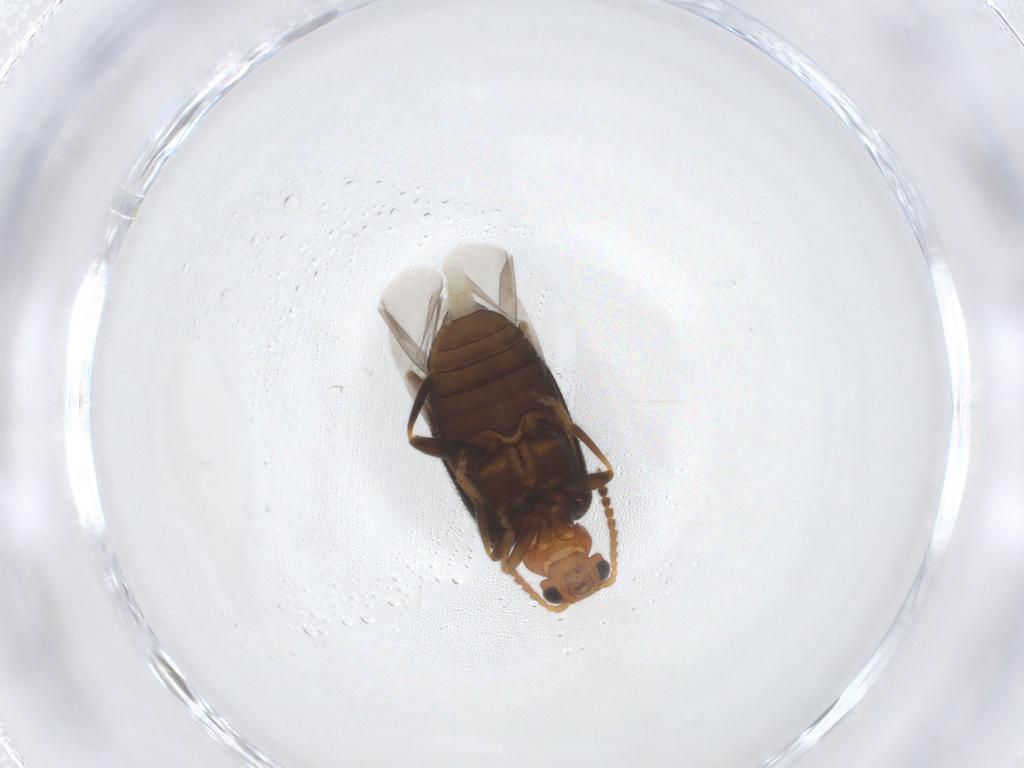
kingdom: Animalia
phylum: Arthropoda
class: Insecta
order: Coleoptera
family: Aderidae
